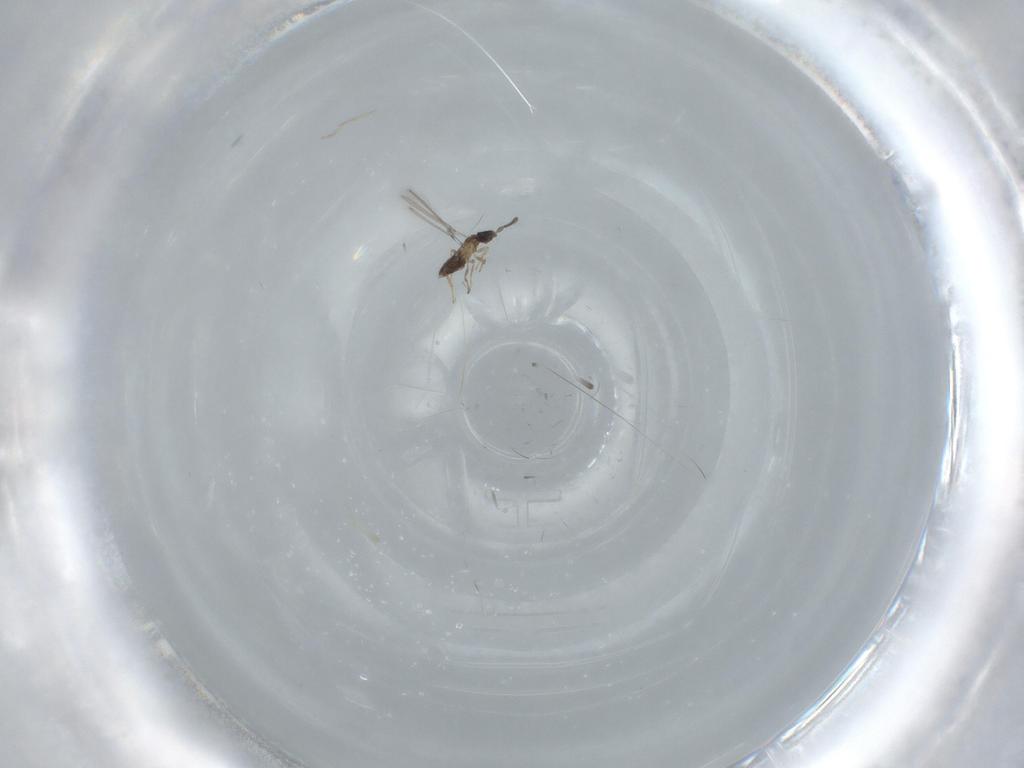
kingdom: Animalia
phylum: Arthropoda
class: Insecta
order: Hymenoptera
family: Mymaridae
